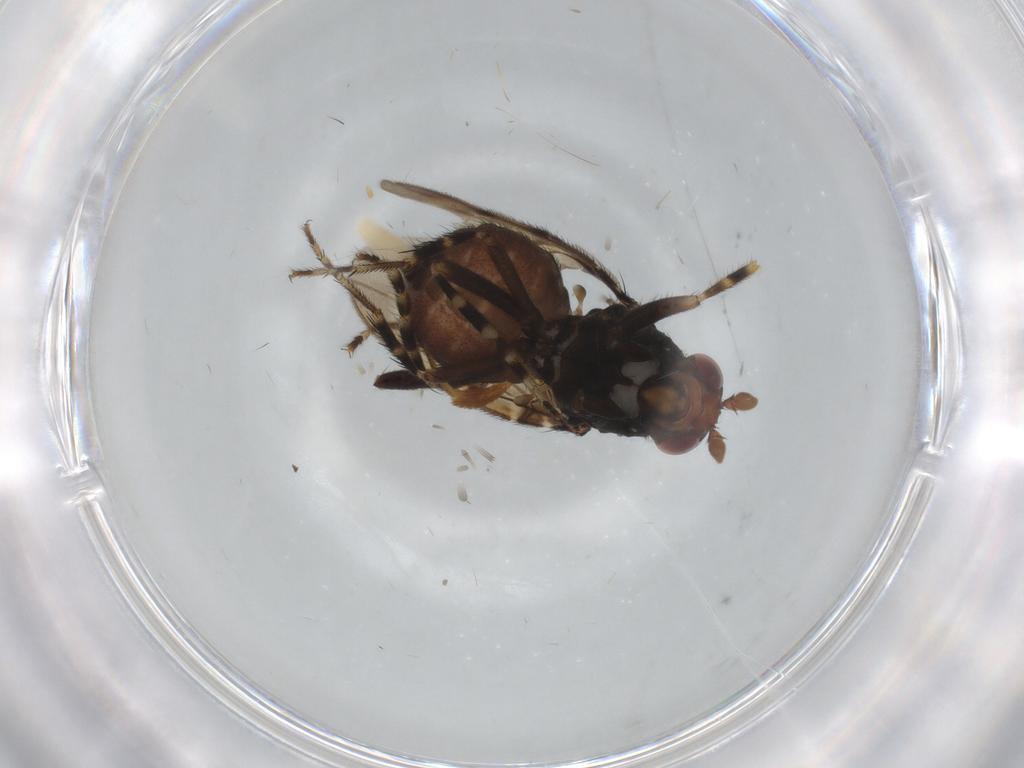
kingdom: Animalia
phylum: Arthropoda
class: Insecta
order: Diptera
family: Sphaeroceridae
